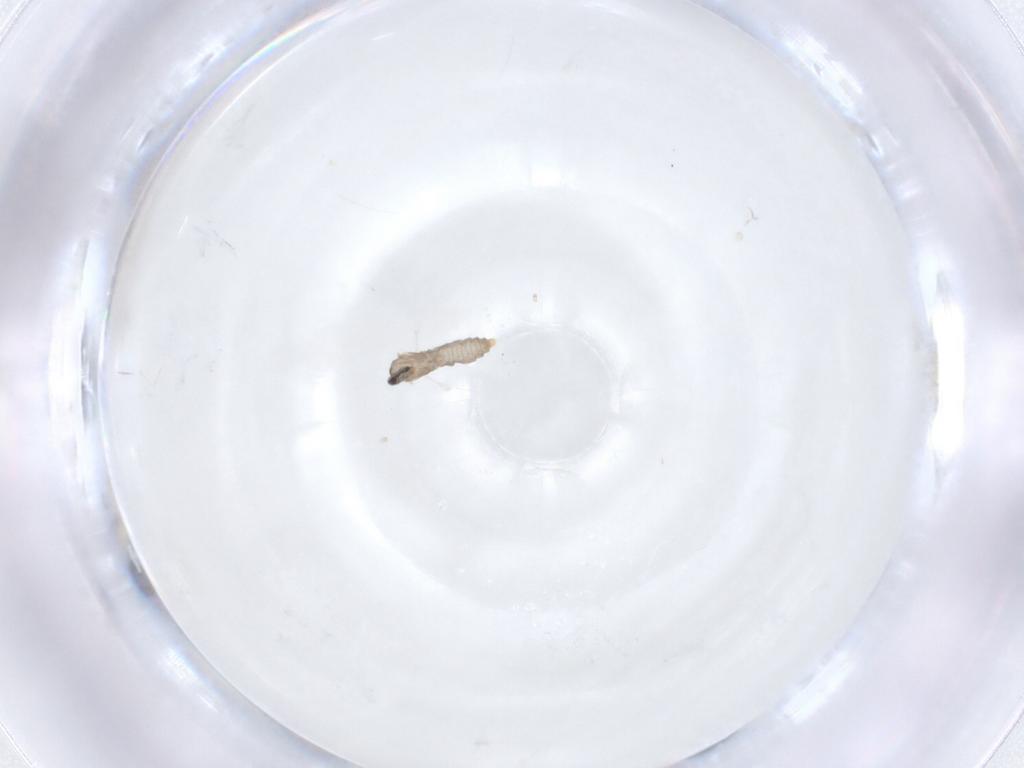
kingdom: Animalia
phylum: Arthropoda
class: Insecta
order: Diptera
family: Cecidomyiidae
